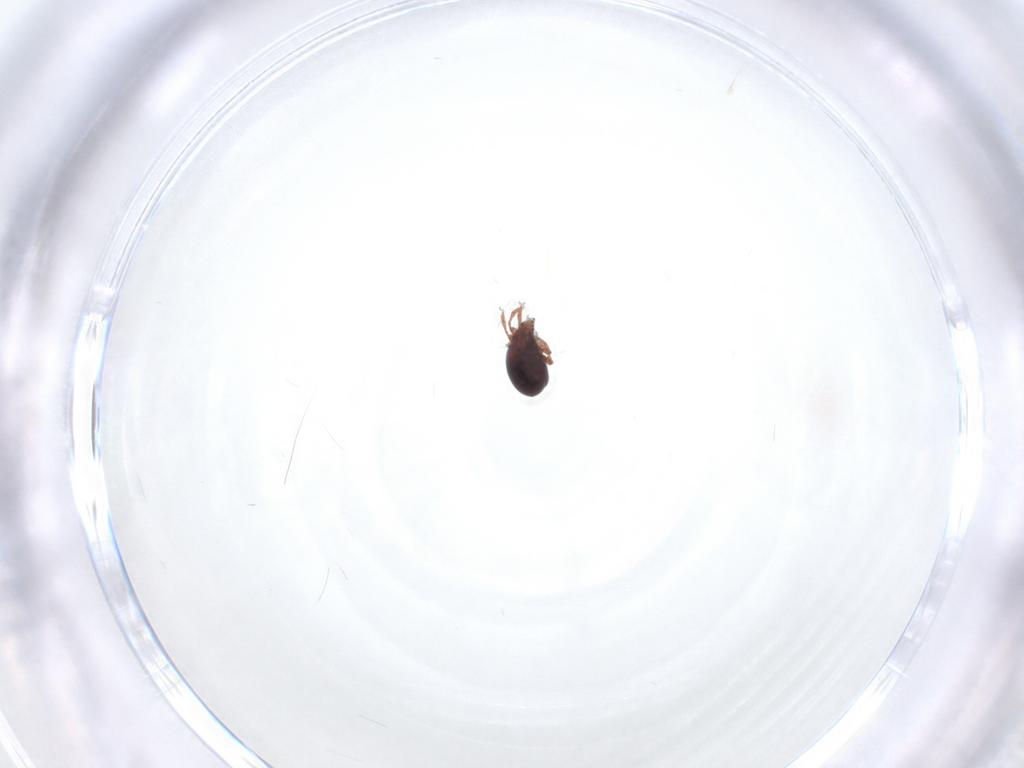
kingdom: Animalia
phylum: Arthropoda
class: Arachnida
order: Sarcoptiformes
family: Ceratozetidae
